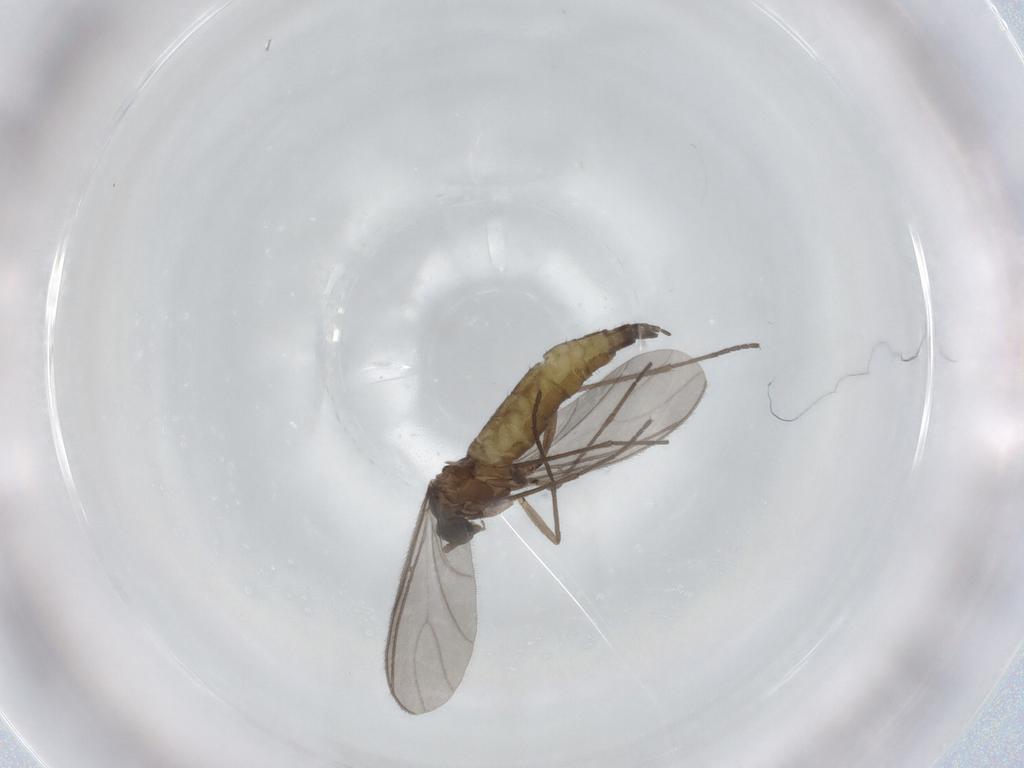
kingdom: Animalia
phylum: Arthropoda
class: Insecta
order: Diptera
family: Sciaridae
